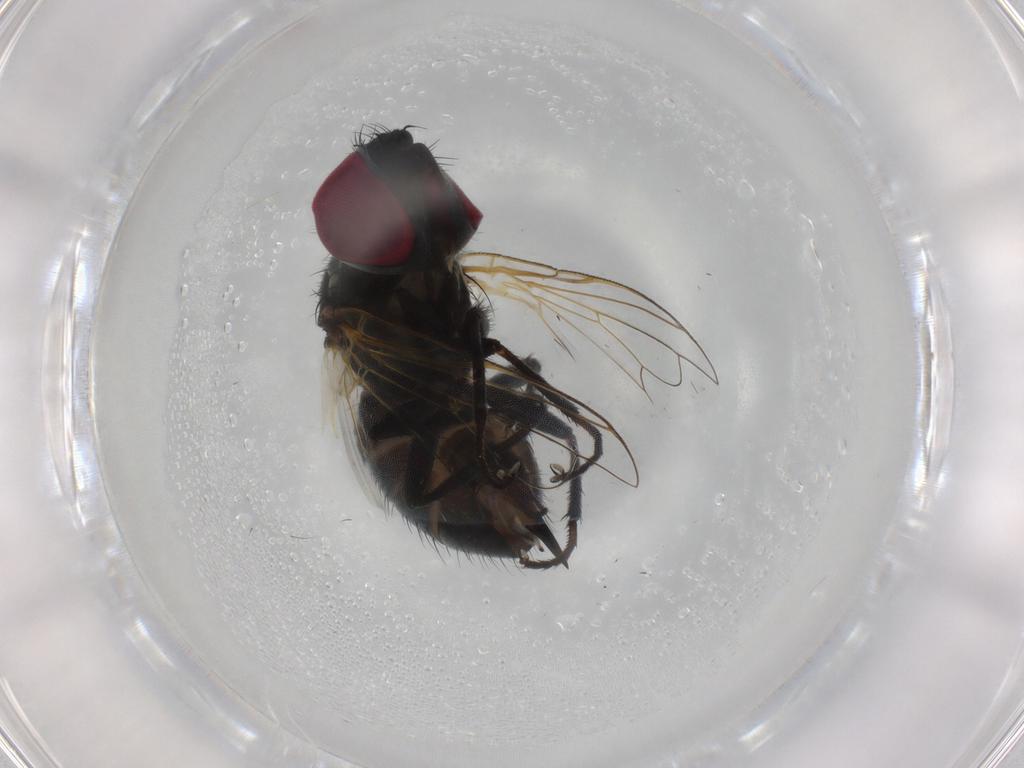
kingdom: Animalia
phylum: Arthropoda
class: Insecta
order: Diptera
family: Tachinidae
